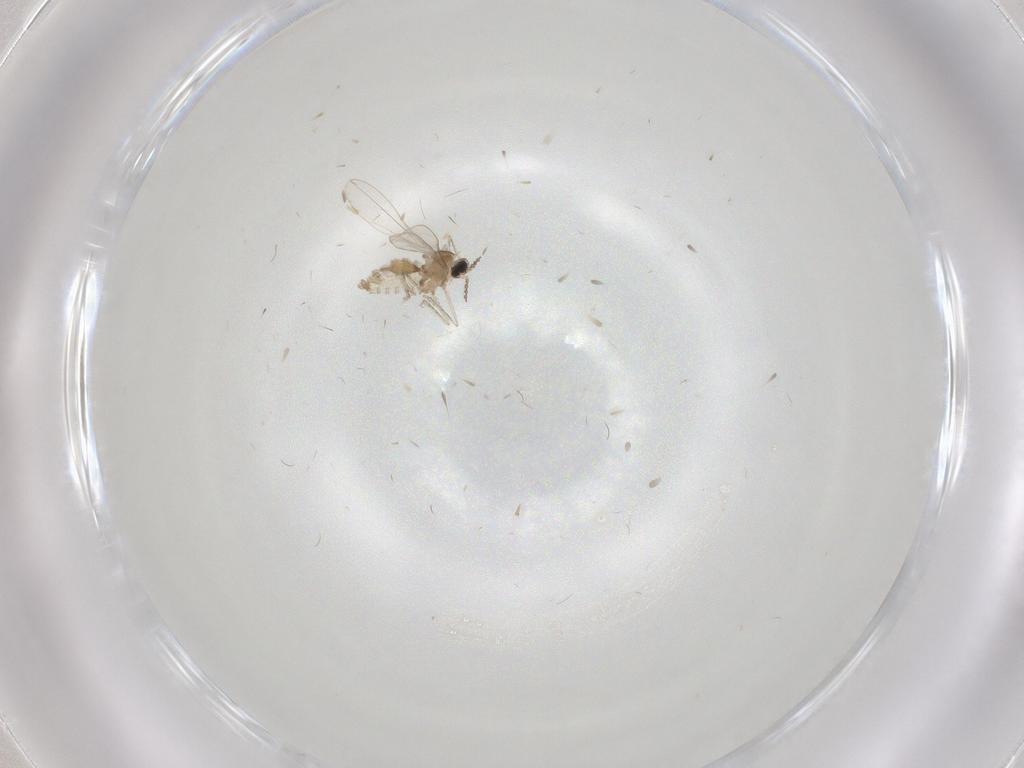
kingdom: Animalia
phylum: Arthropoda
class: Insecta
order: Diptera
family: Cecidomyiidae
